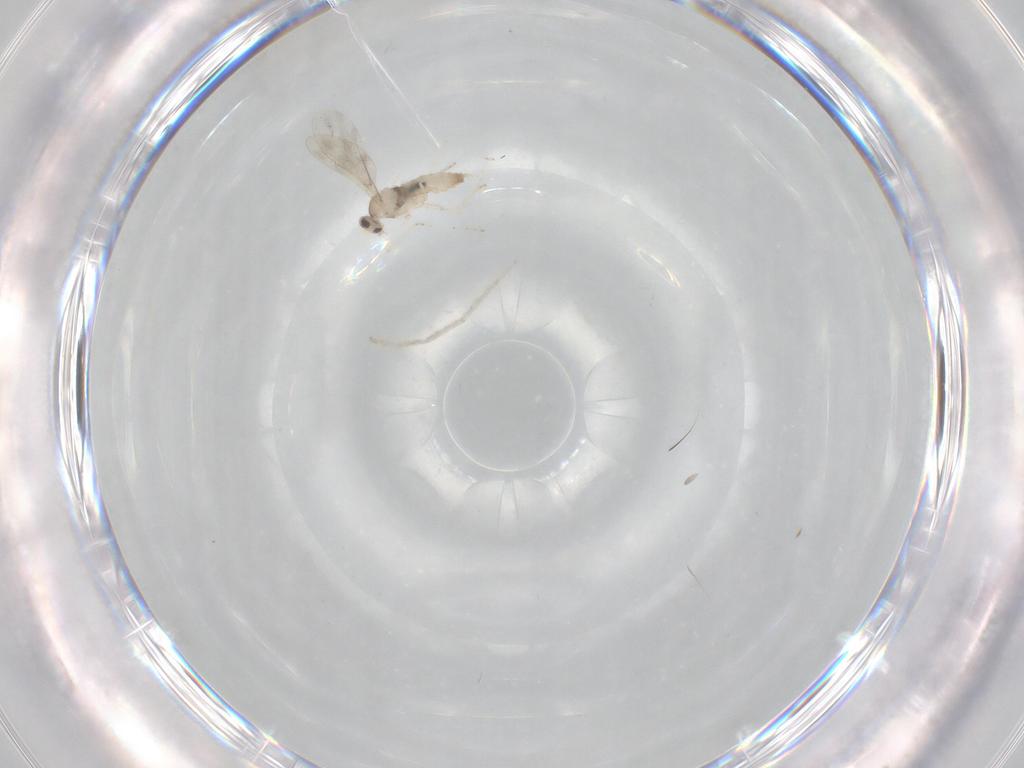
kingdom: Animalia
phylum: Arthropoda
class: Insecta
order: Diptera
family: Cecidomyiidae
